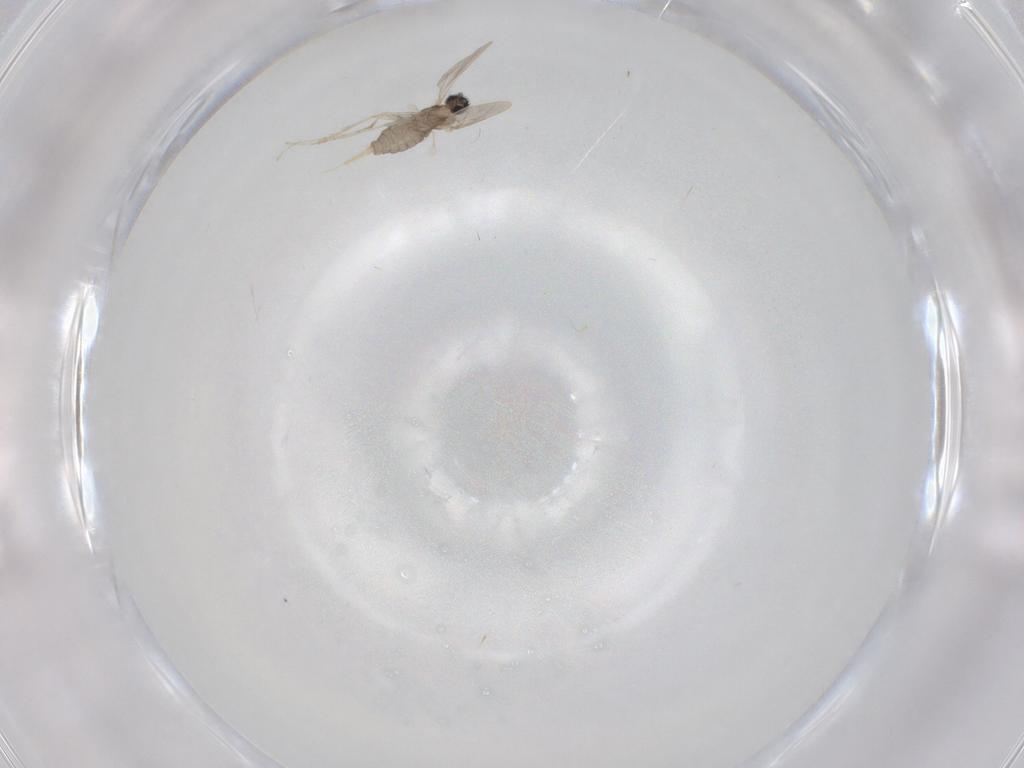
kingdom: Animalia
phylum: Arthropoda
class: Insecta
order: Diptera
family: Cecidomyiidae
